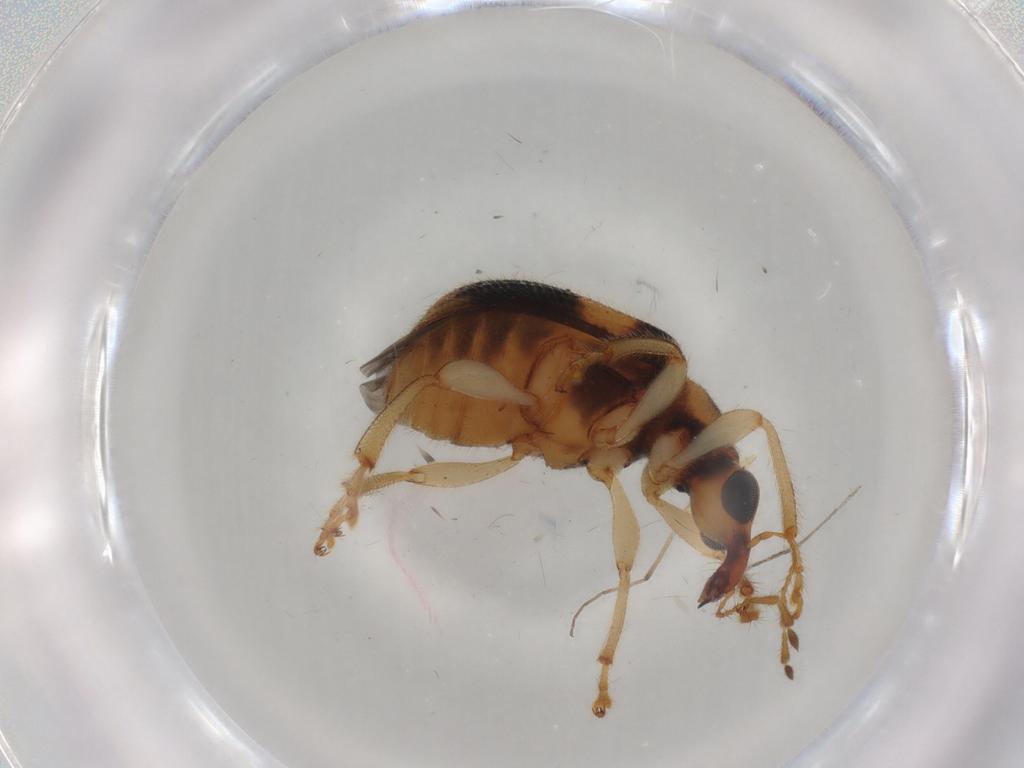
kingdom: Animalia
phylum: Arthropoda
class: Insecta
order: Coleoptera
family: Attelabidae
